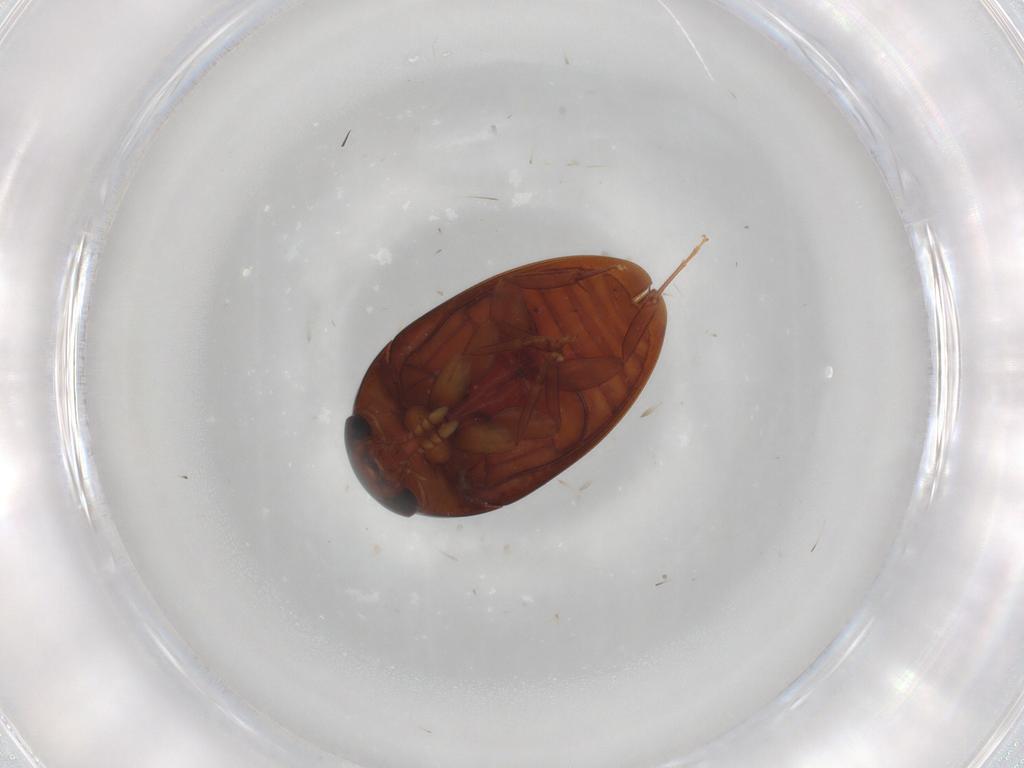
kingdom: Animalia
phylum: Arthropoda
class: Insecta
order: Coleoptera
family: Phalacridae
